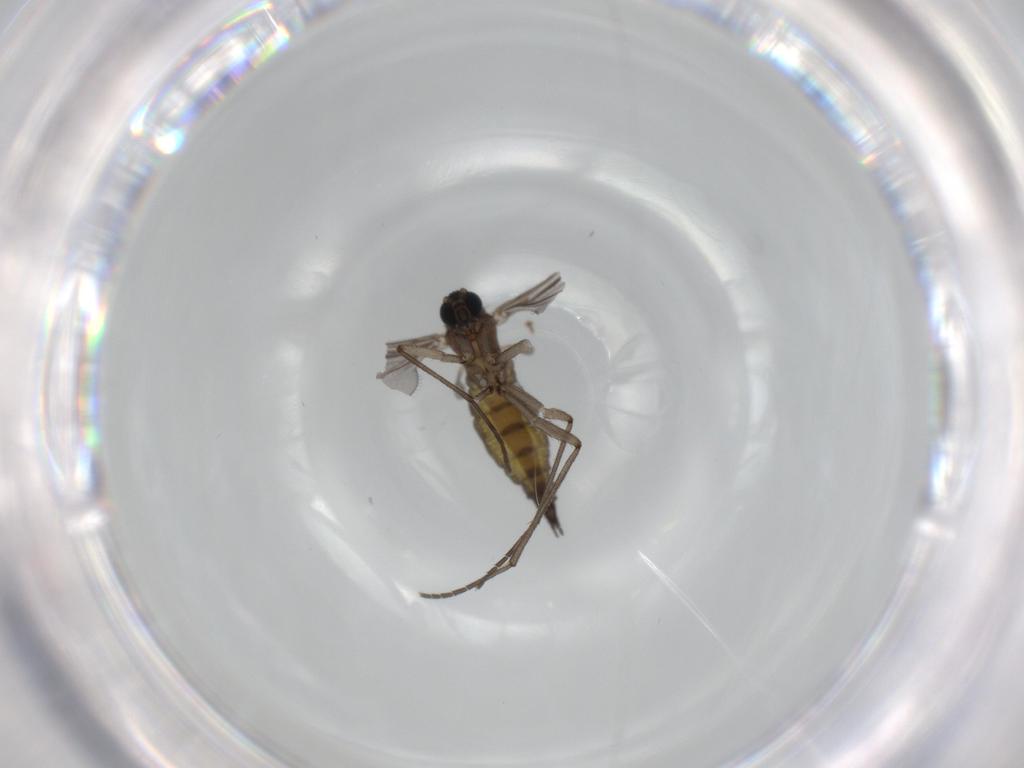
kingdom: Animalia
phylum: Arthropoda
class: Insecta
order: Diptera
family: Sciaridae
